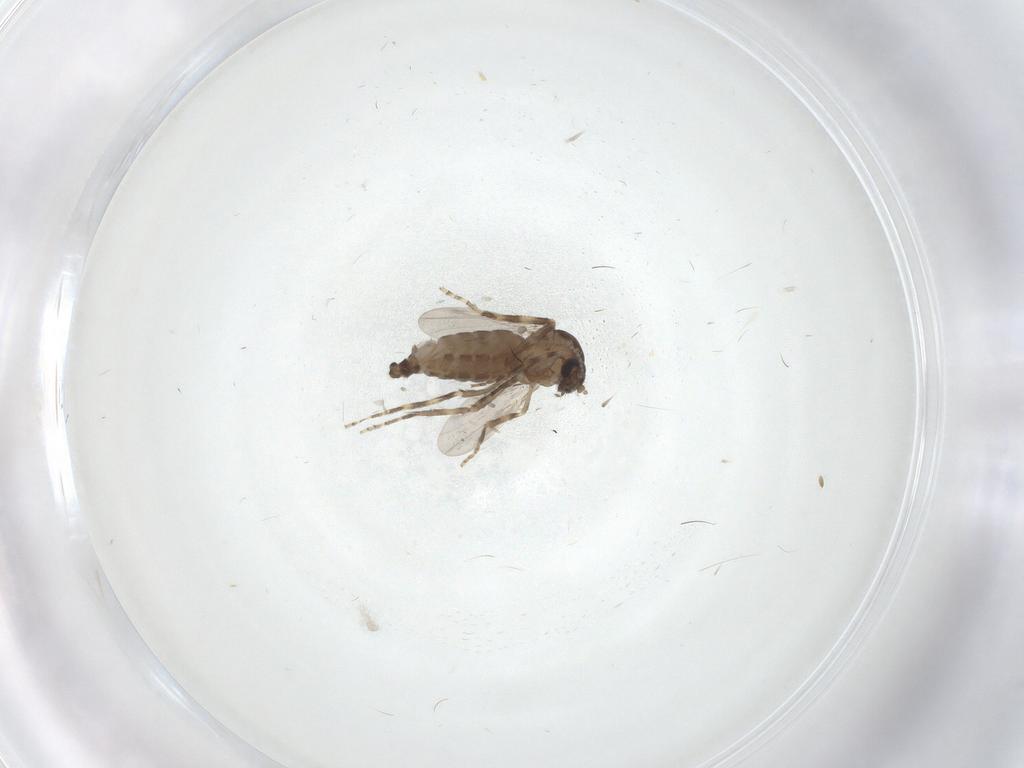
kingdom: Animalia
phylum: Arthropoda
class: Insecta
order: Diptera
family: Ceratopogonidae
